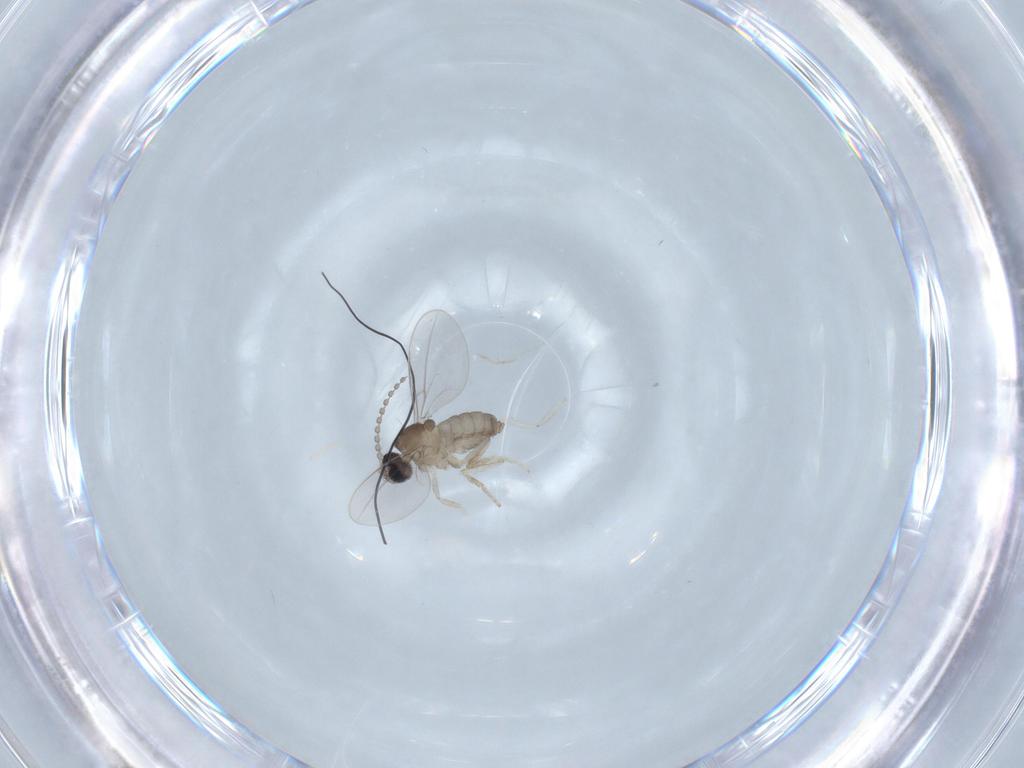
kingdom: Animalia
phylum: Arthropoda
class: Insecta
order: Diptera
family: Cecidomyiidae
